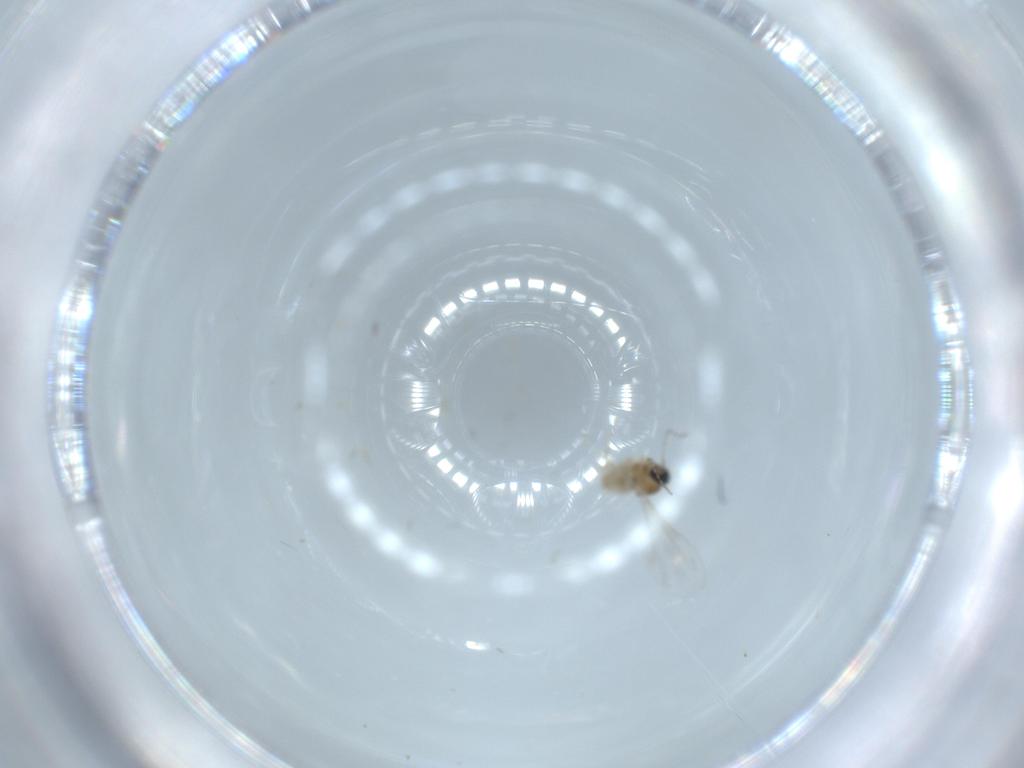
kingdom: Animalia
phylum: Arthropoda
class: Insecta
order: Diptera
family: Cecidomyiidae
